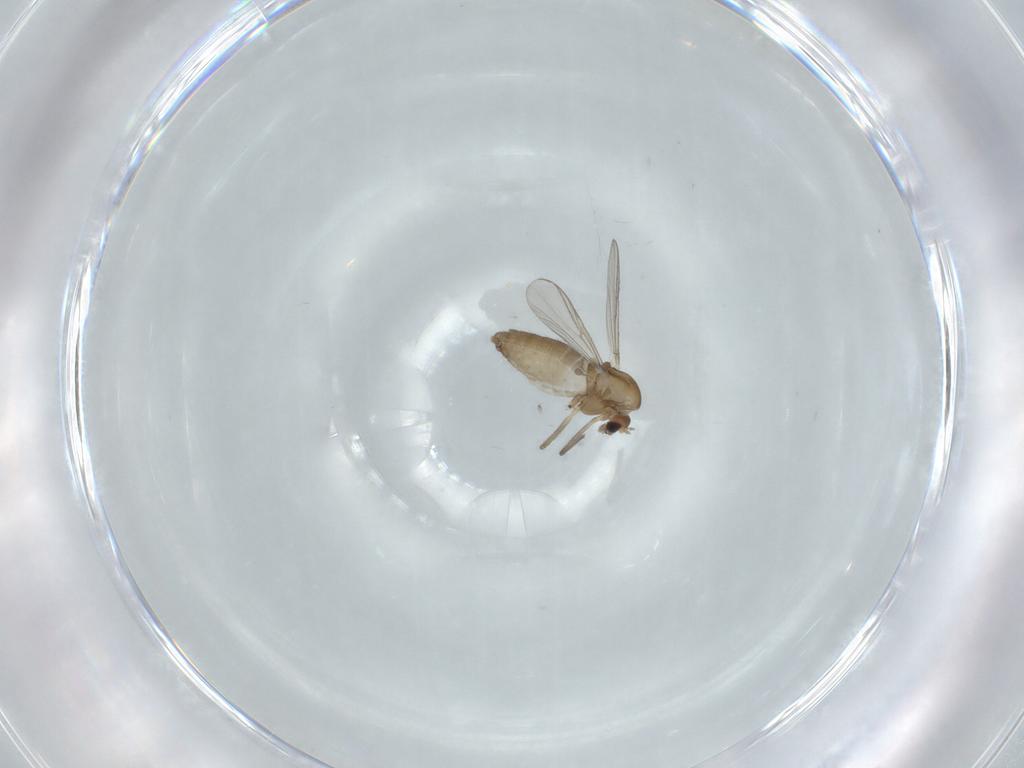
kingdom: Animalia
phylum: Arthropoda
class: Insecta
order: Diptera
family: Chironomidae
